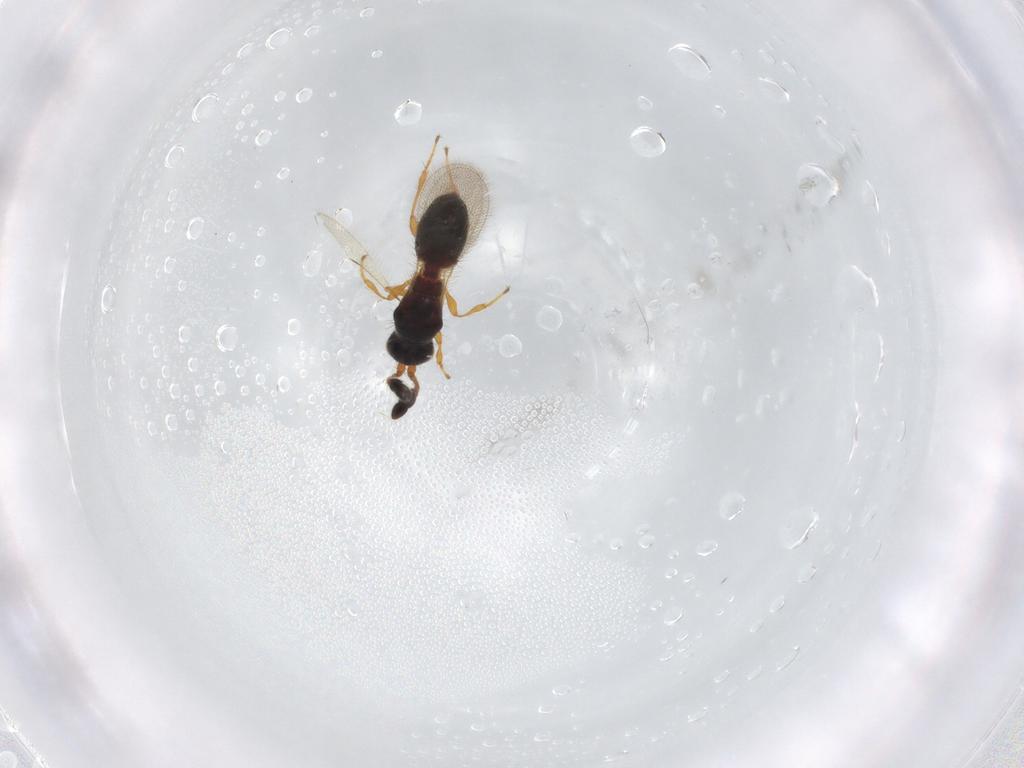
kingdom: Animalia
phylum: Arthropoda
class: Insecta
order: Hymenoptera
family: Diapriidae
